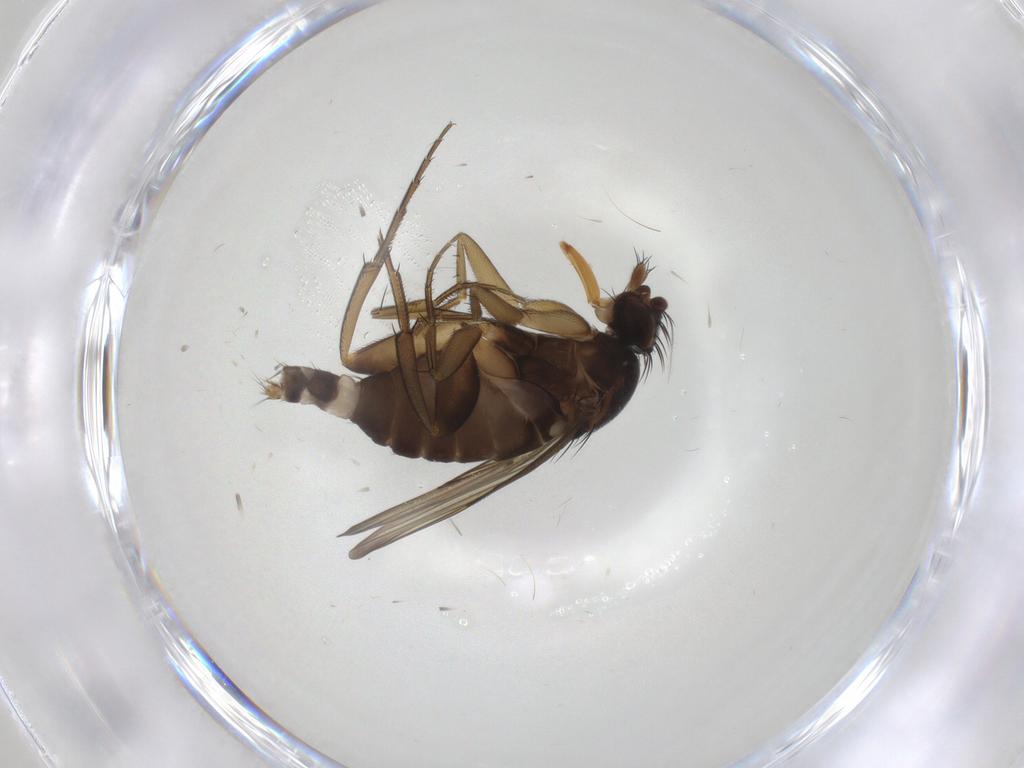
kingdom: Animalia
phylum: Arthropoda
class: Insecta
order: Diptera
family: Phoridae
